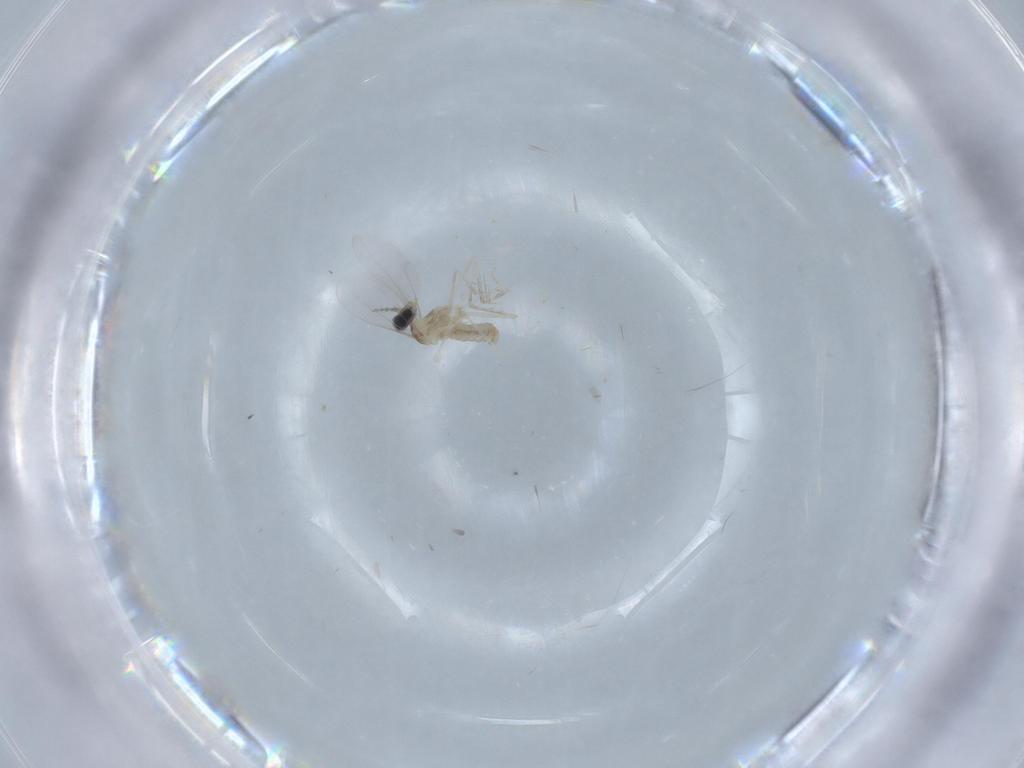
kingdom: Animalia
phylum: Arthropoda
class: Insecta
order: Diptera
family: Cecidomyiidae
